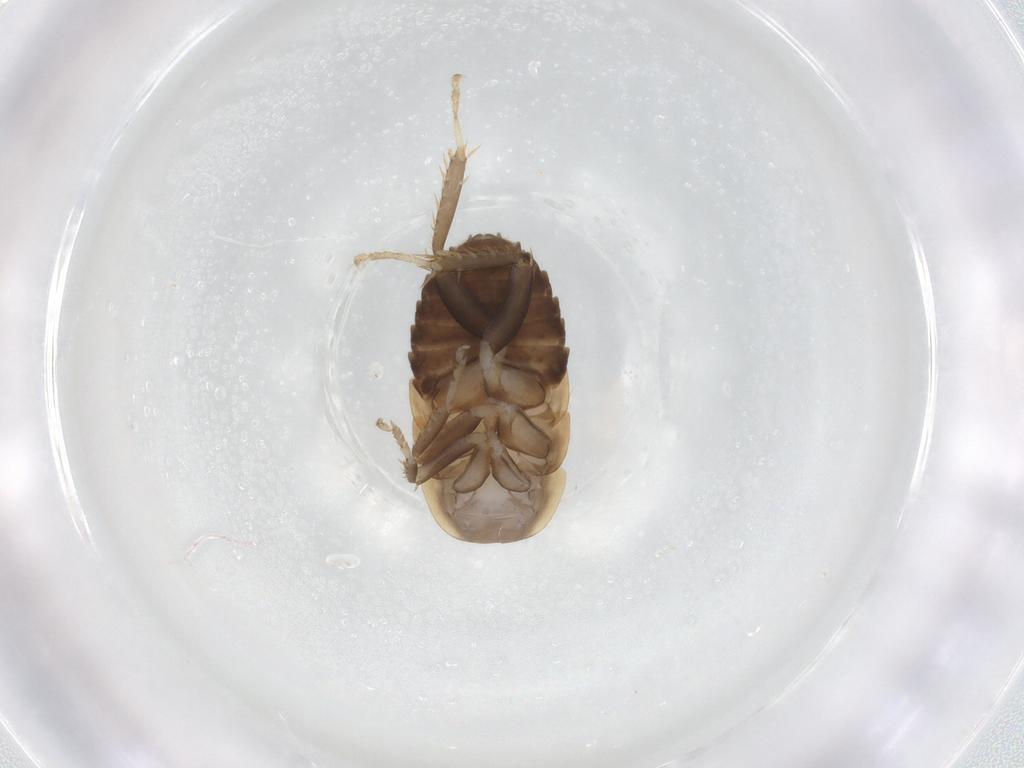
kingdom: Animalia
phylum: Arthropoda
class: Insecta
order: Blattodea
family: Ectobiidae
